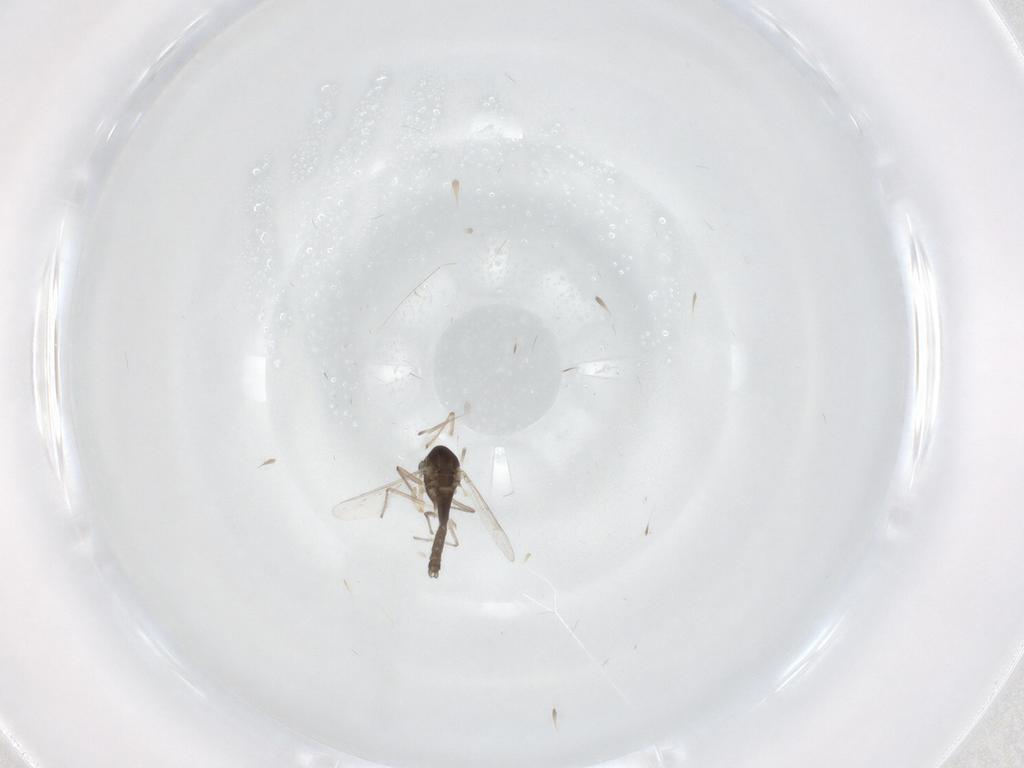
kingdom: Animalia
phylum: Arthropoda
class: Insecta
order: Diptera
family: Chironomidae
